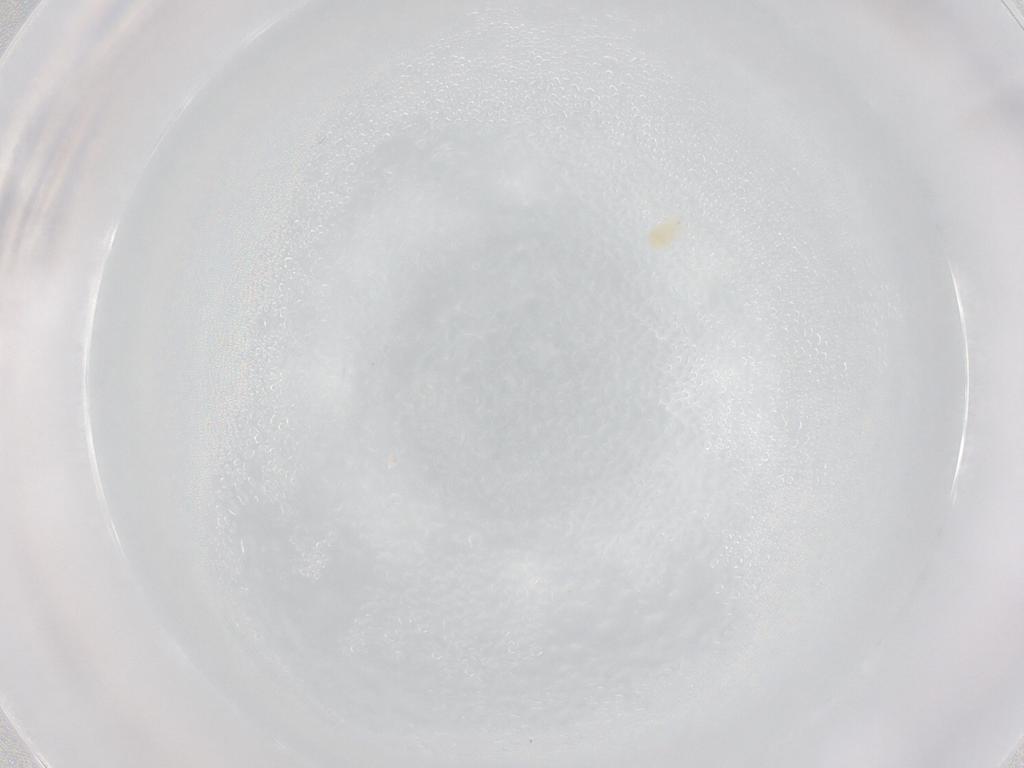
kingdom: Animalia
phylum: Arthropoda
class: Arachnida
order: Trombidiformes
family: Tetranychidae
